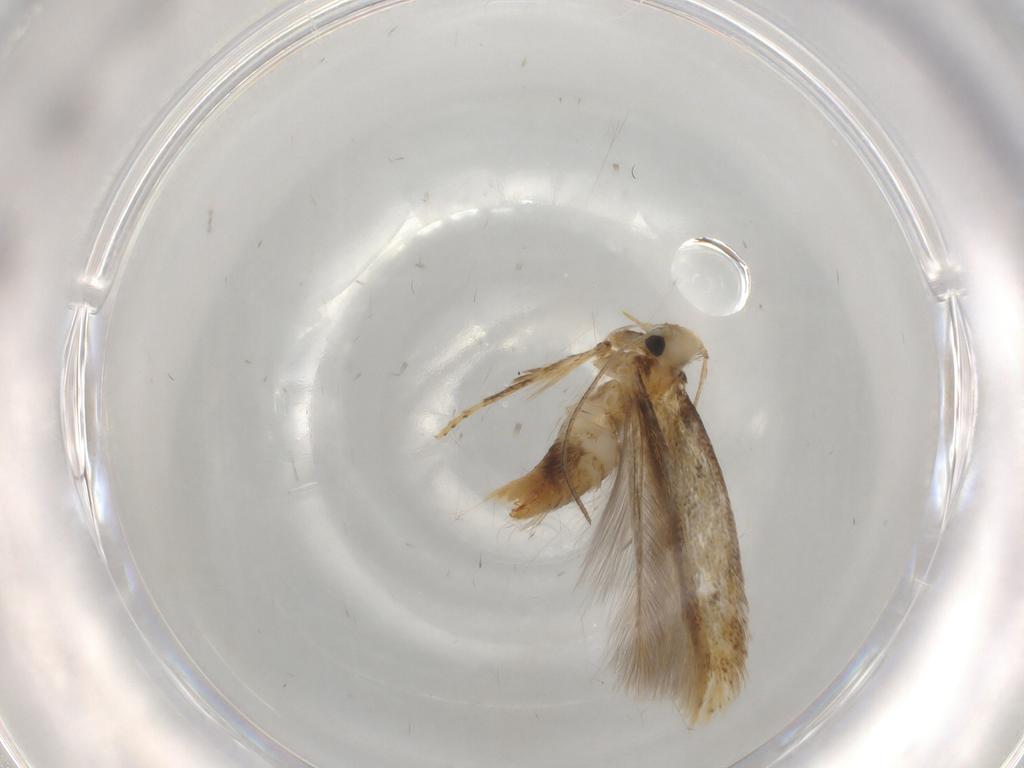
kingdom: Animalia
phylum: Arthropoda
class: Insecta
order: Lepidoptera
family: Tischeriidae
